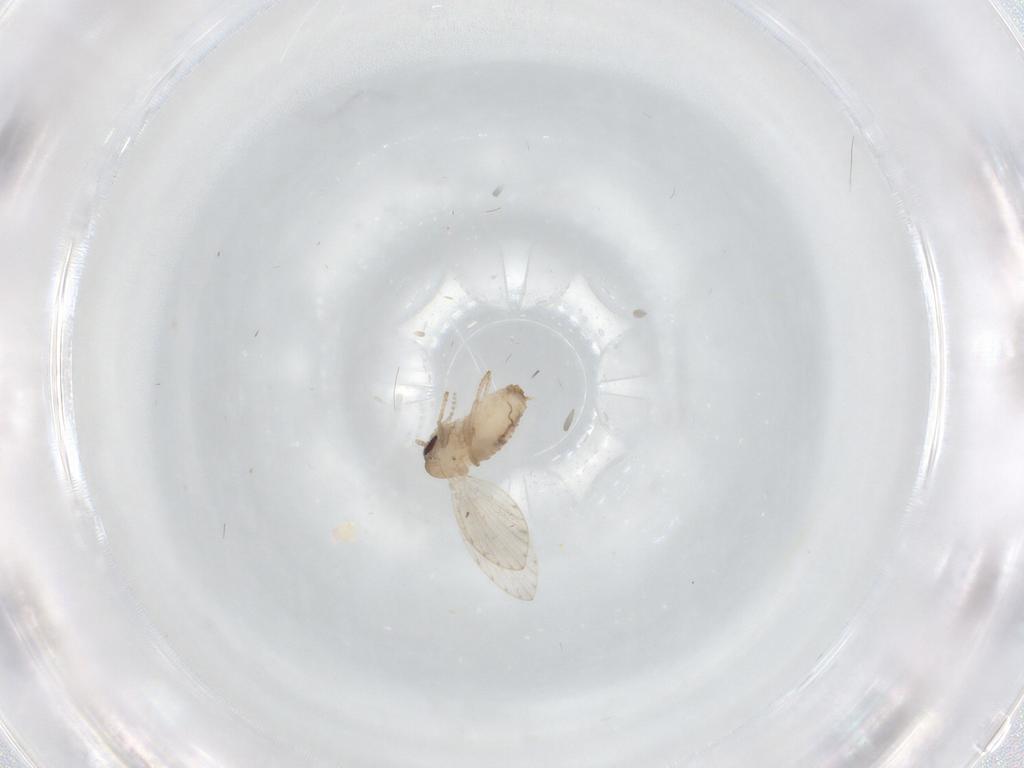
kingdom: Animalia
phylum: Arthropoda
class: Insecta
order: Diptera
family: Psychodidae
